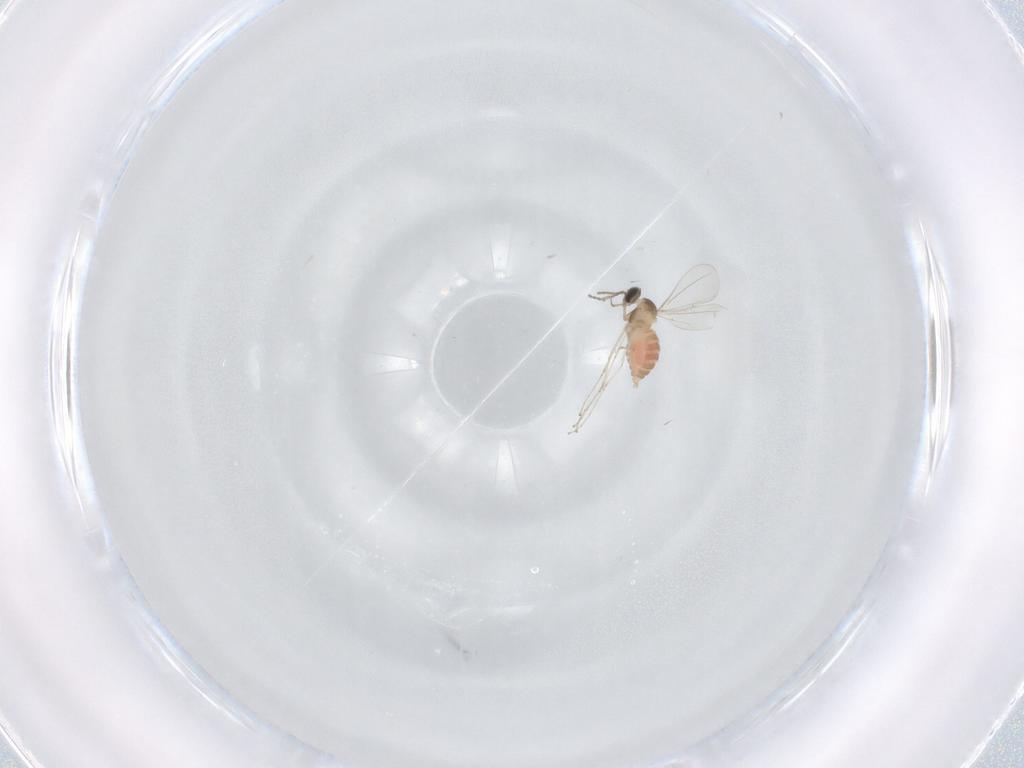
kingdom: Animalia
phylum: Arthropoda
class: Insecta
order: Diptera
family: Cecidomyiidae
